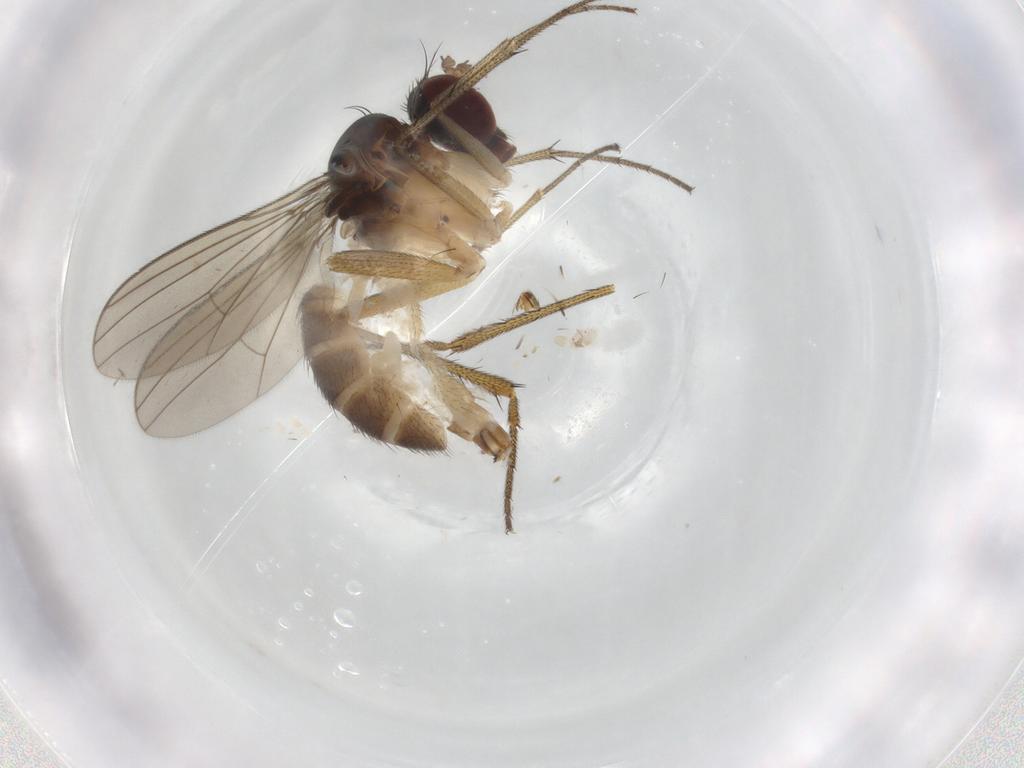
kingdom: Animalia
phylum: Arthropoda
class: Insecta
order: Diptera
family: Dolichopodidae
